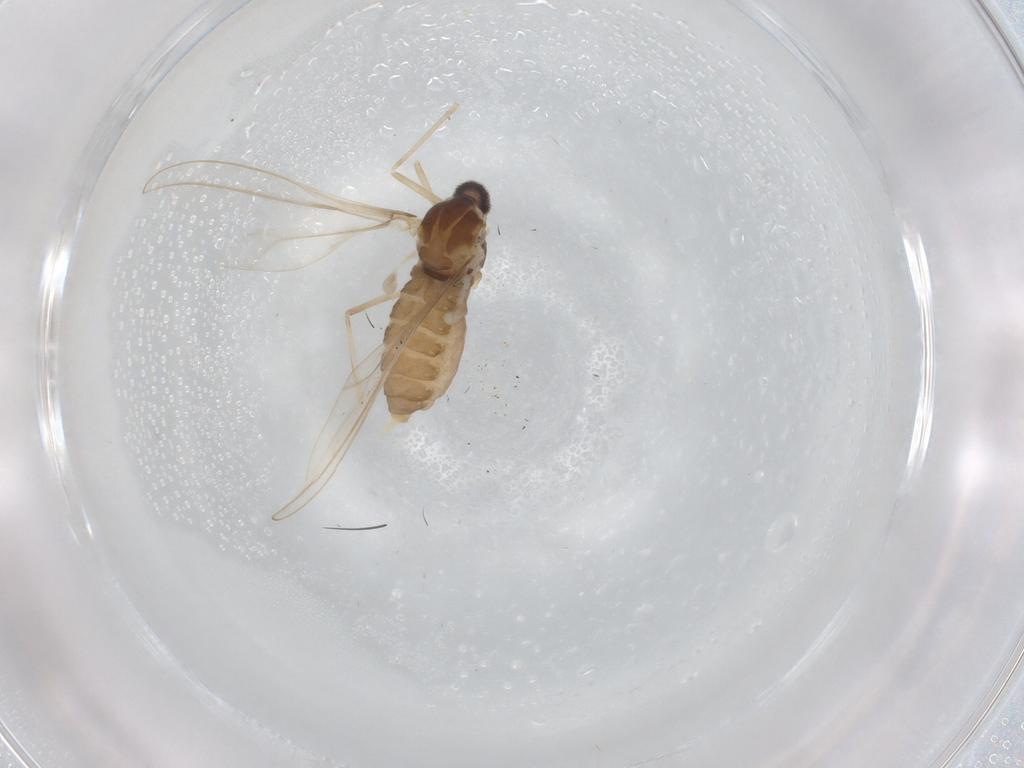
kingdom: Animalia
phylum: Arthropoda
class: Insecta
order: Diptera
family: Cecidomyiidae
